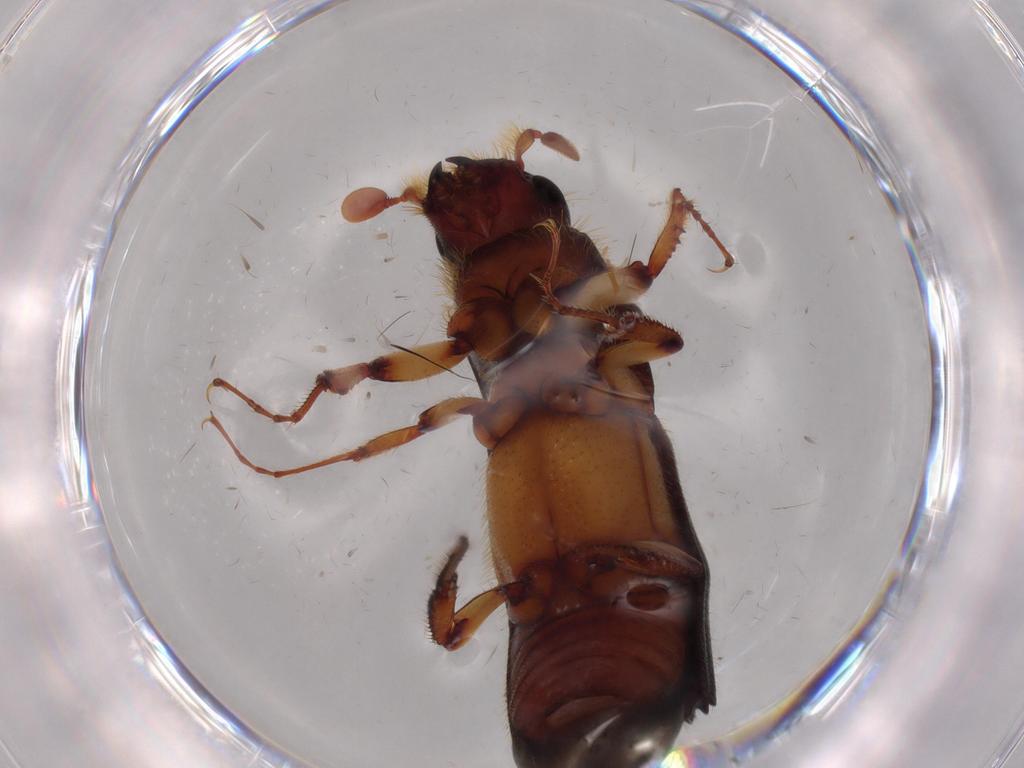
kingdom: Animalia
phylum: Arthropoda
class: Insecta
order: Coleoptera
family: Curculionidae
